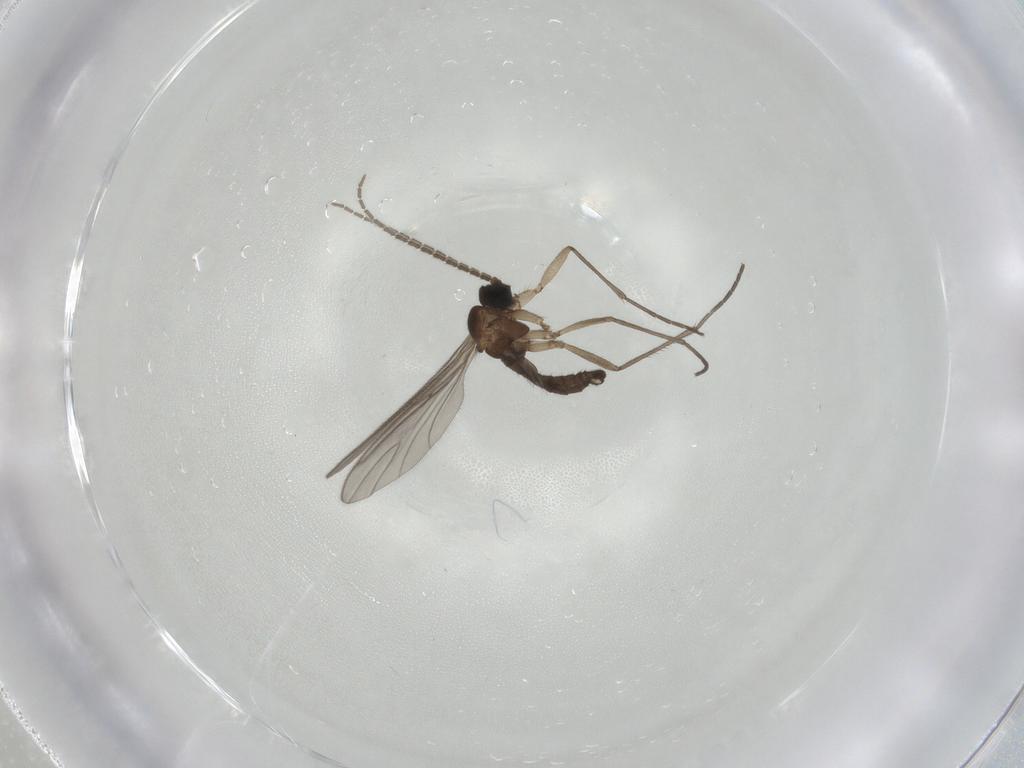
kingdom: Animalia
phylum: Arthropoda
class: Insecta
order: Diptera
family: Sciaridae
